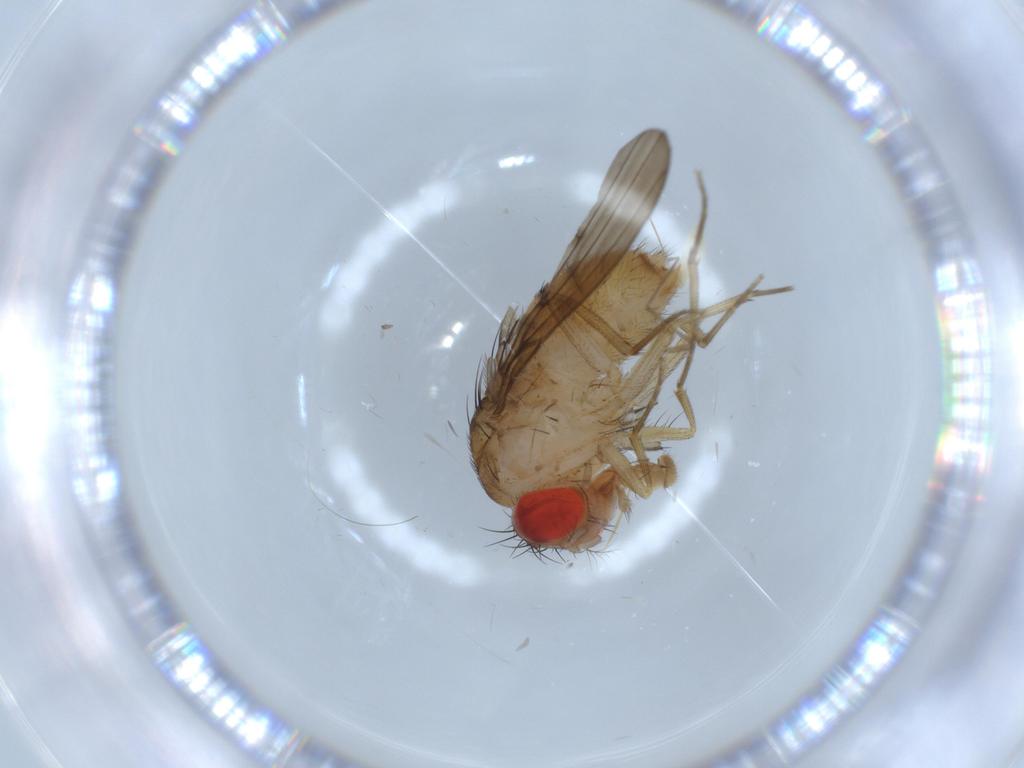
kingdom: Animalia
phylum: Arthropoda
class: Insecta
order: Diptera
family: Drosophilidae
